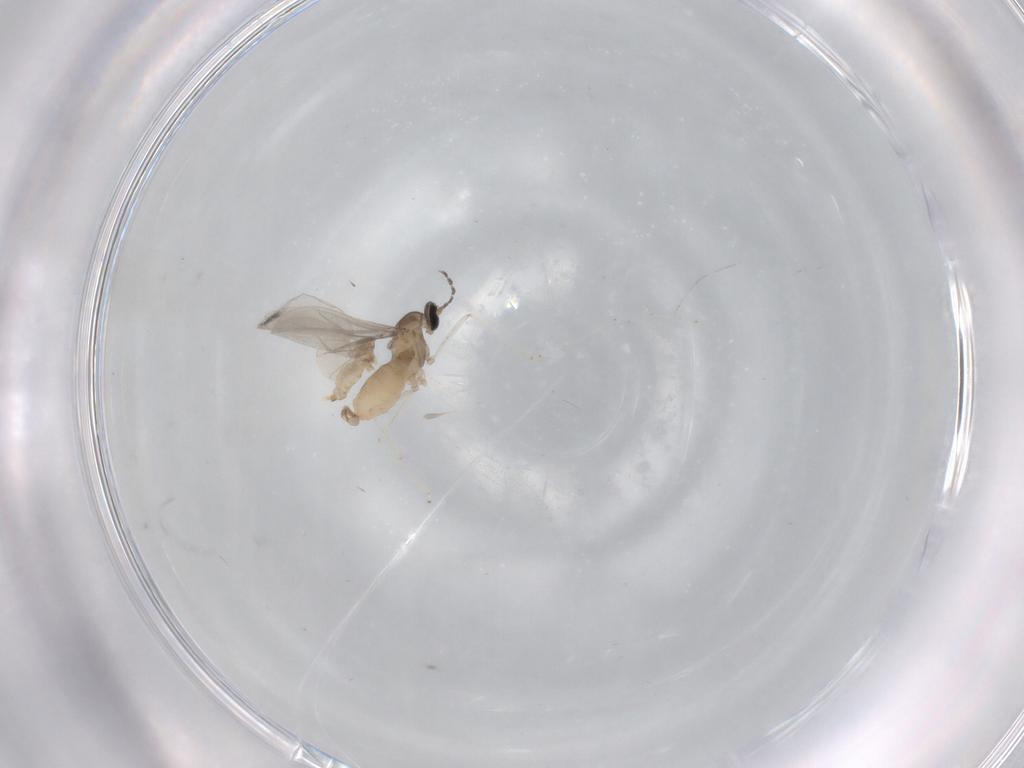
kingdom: Animalia
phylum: Arthropoda
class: Insecta
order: Diptera
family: Cecidomyiidae
